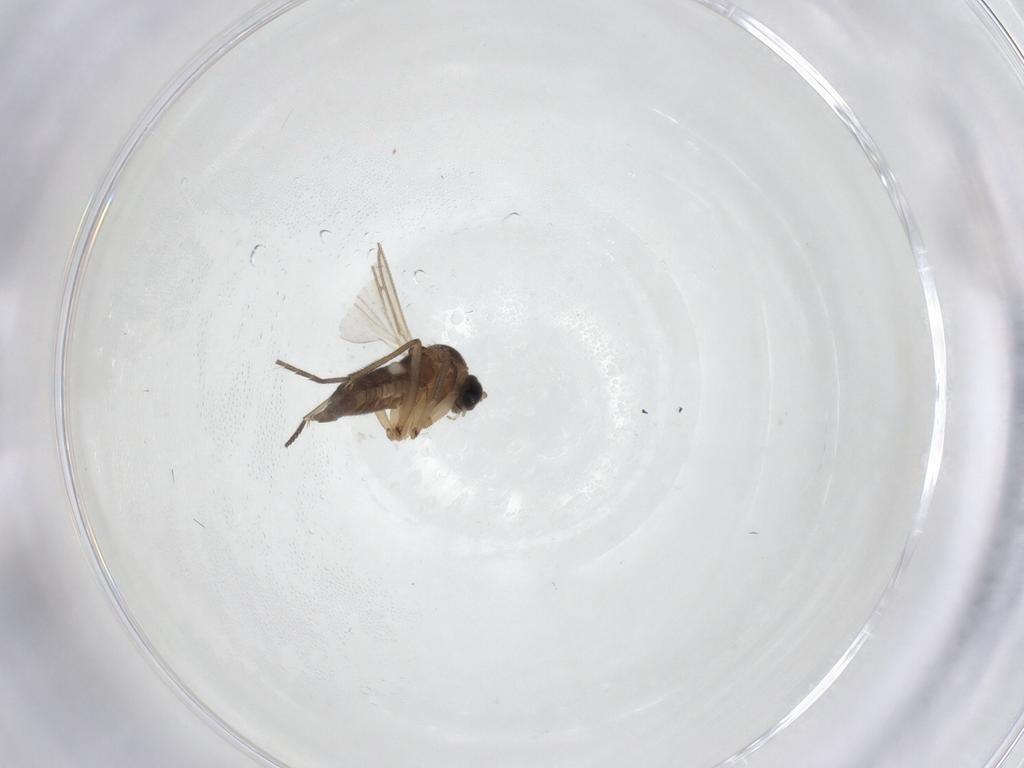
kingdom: Animalia
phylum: Arthropoda
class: Insecta
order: Diptera
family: Sciaridae
